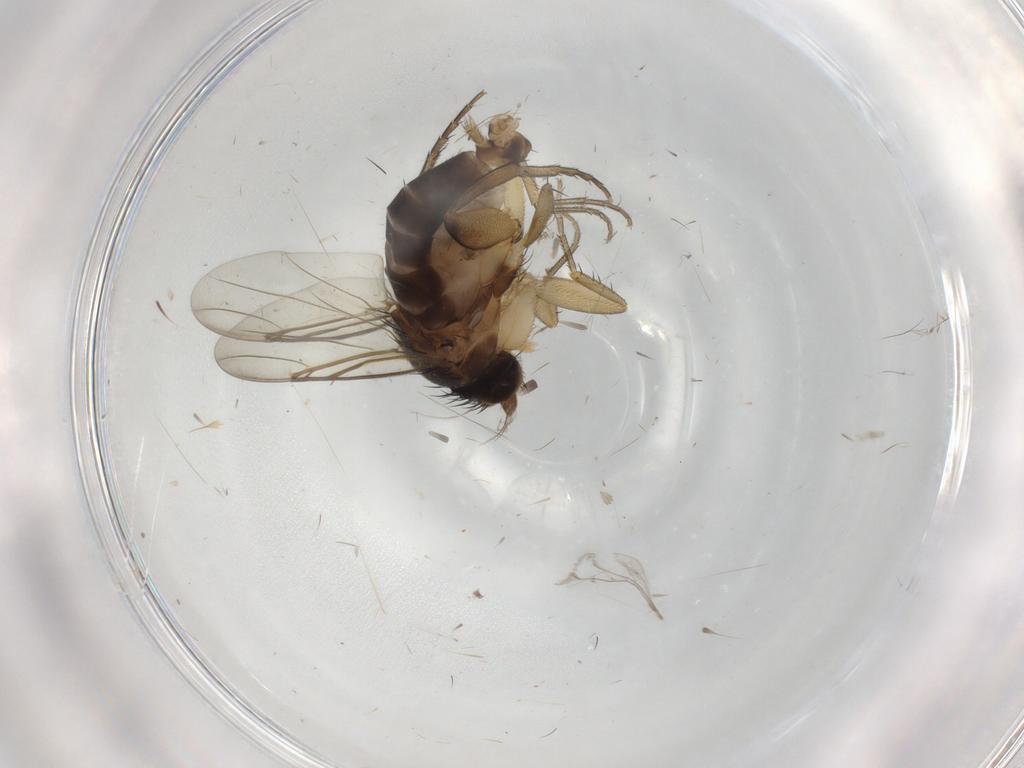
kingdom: Animalia
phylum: Arthropoda
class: Insecta
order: Diptera
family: Phoridae
